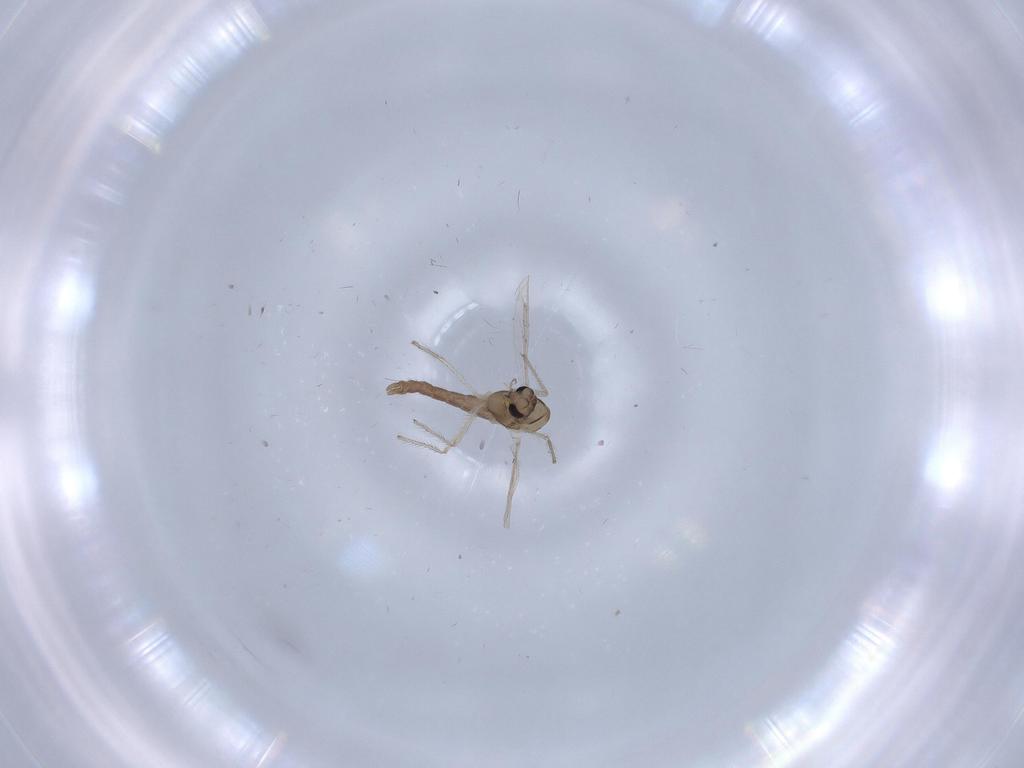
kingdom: Animalia
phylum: Arthropoda
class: Insecta
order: Diptera
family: Chironomidae
